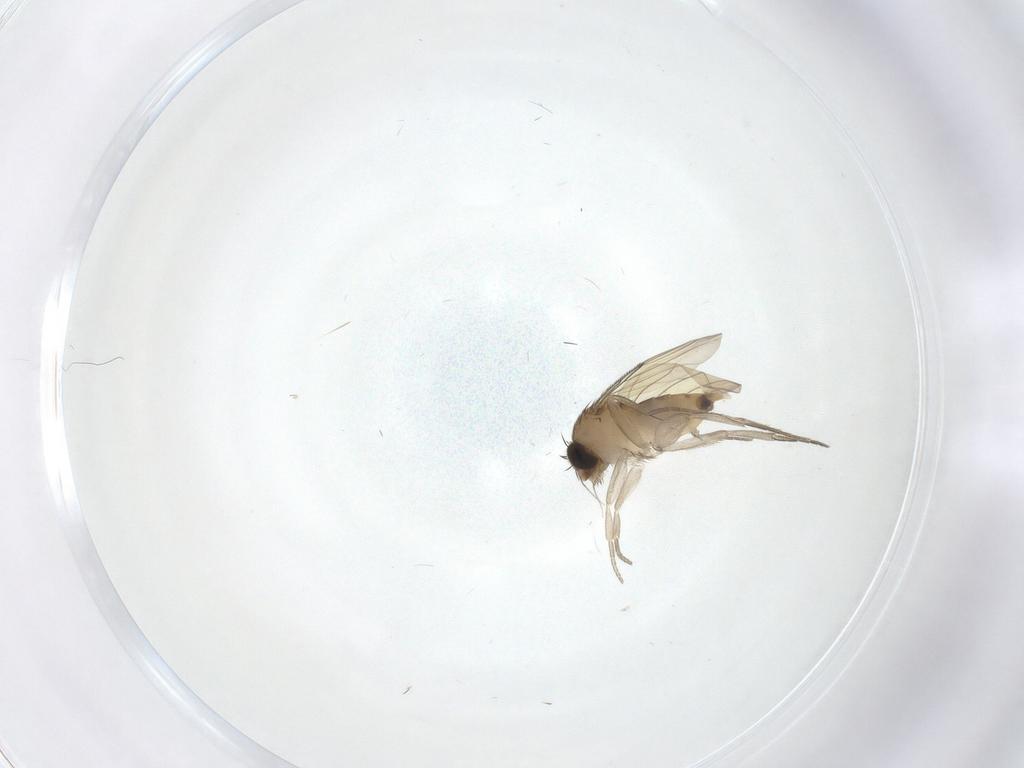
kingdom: Animalia
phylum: Arthropoda
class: Insecta
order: Diptera
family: Phoridae
